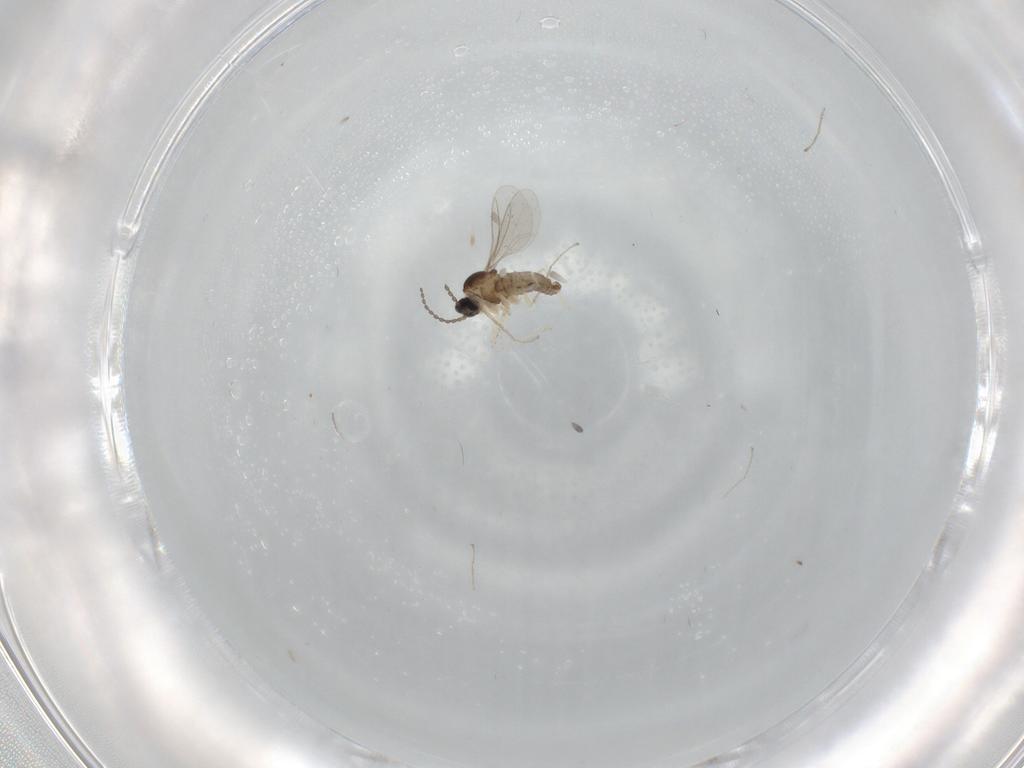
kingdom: Animalia
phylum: Arthropoda
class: Insecta
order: Diptera
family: Cecidomyiidae
